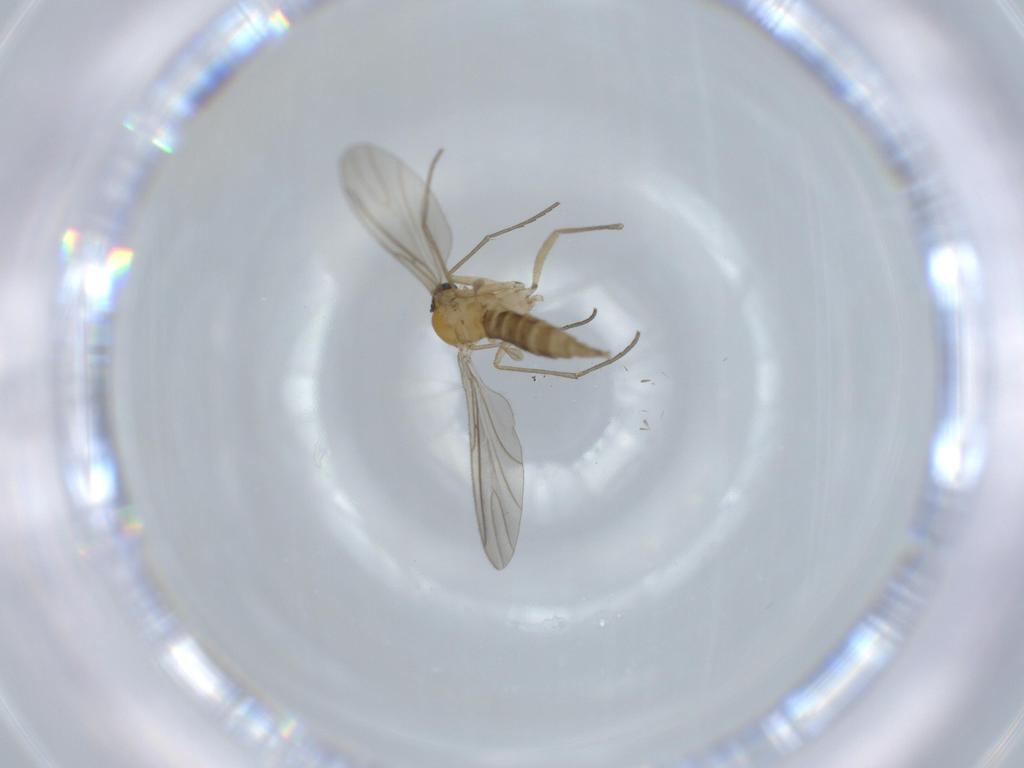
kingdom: Animalia
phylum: Arthropoda
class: Insecta
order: Diptera
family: Sciaridae
